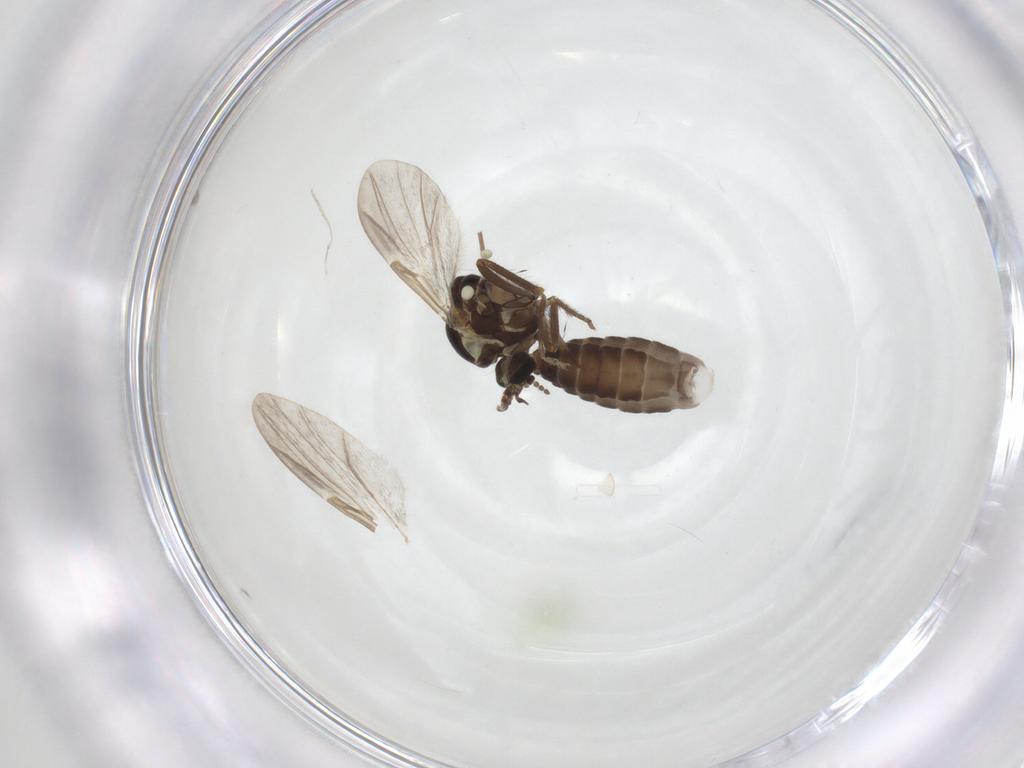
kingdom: Animalia
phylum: Arthropoda
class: Insecta
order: Diptera
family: Ceratopogonidae
